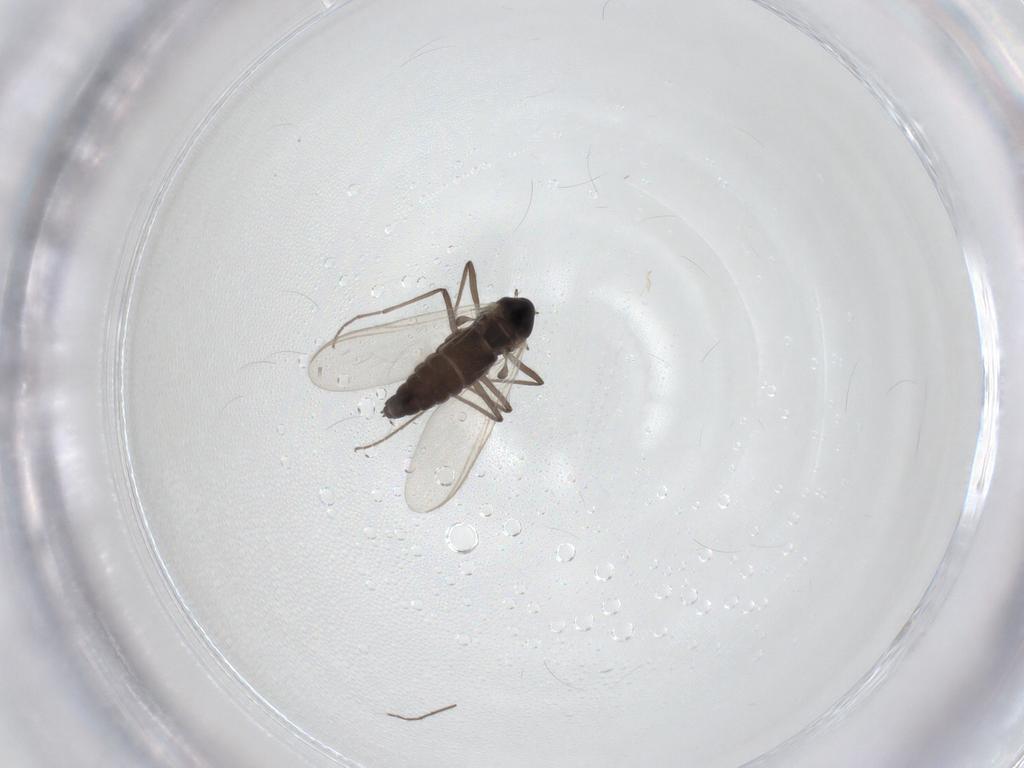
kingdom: Animalia
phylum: Arthropoda
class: Insecta
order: Diptera
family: Chironomidae
